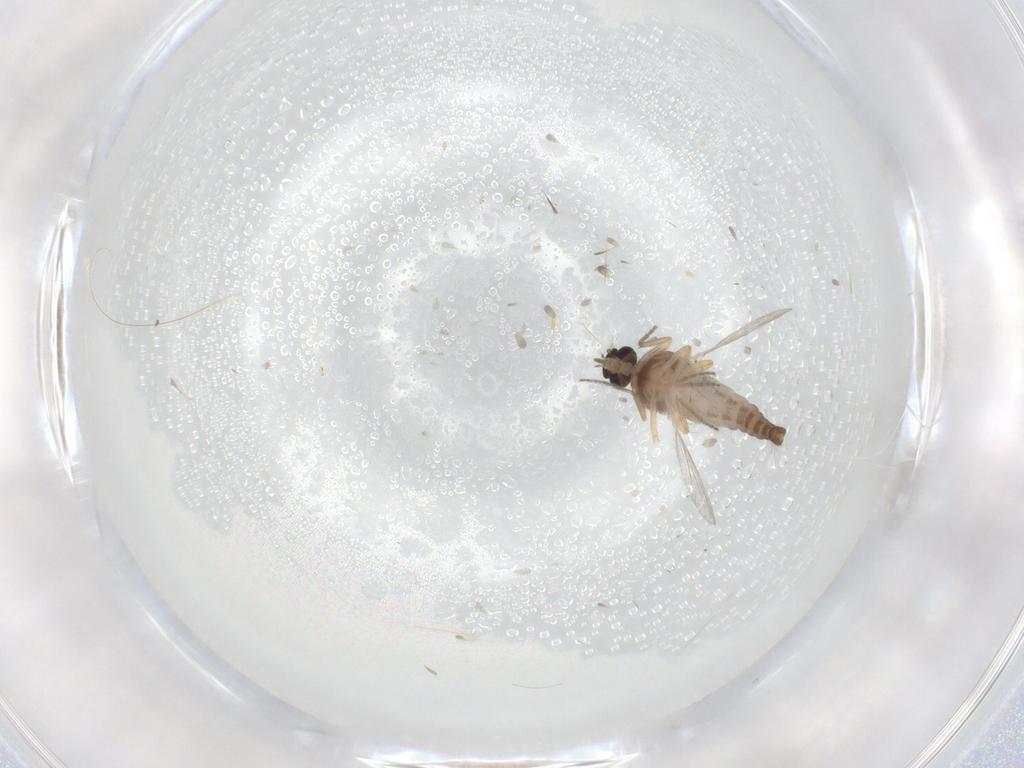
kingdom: Animalia
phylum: Arthropoda
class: Insecta
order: Diptera
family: Ceratopogonidae
